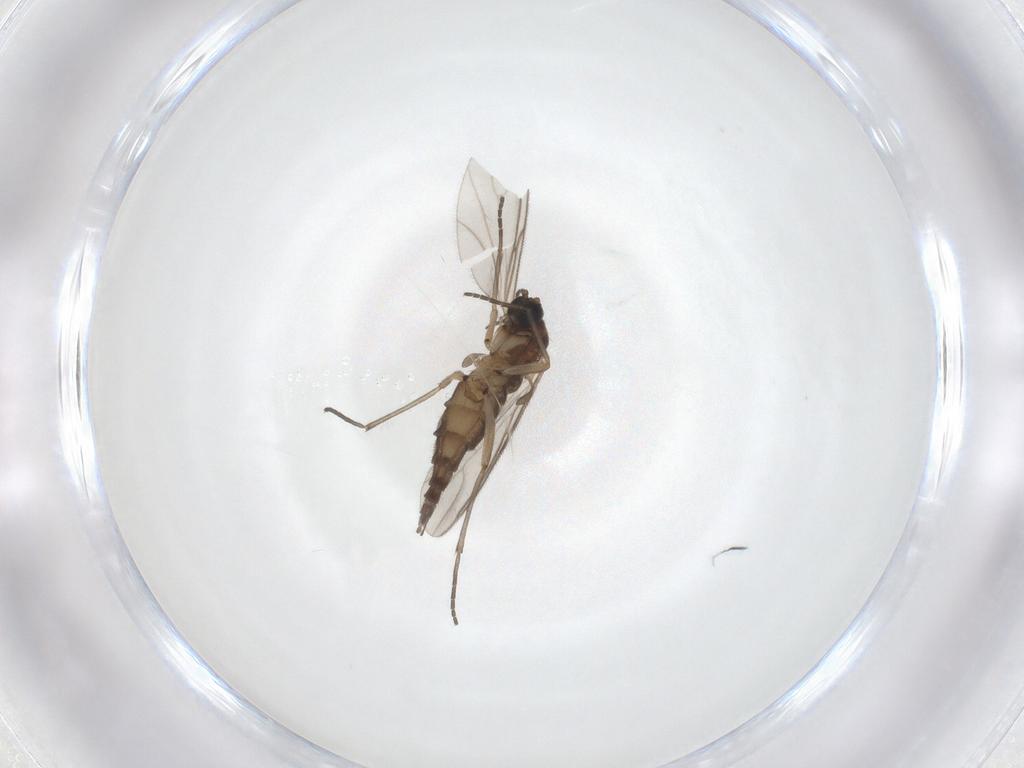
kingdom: Animalia
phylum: Arthropoda
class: Insecta
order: Diptera
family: Sciaridae
